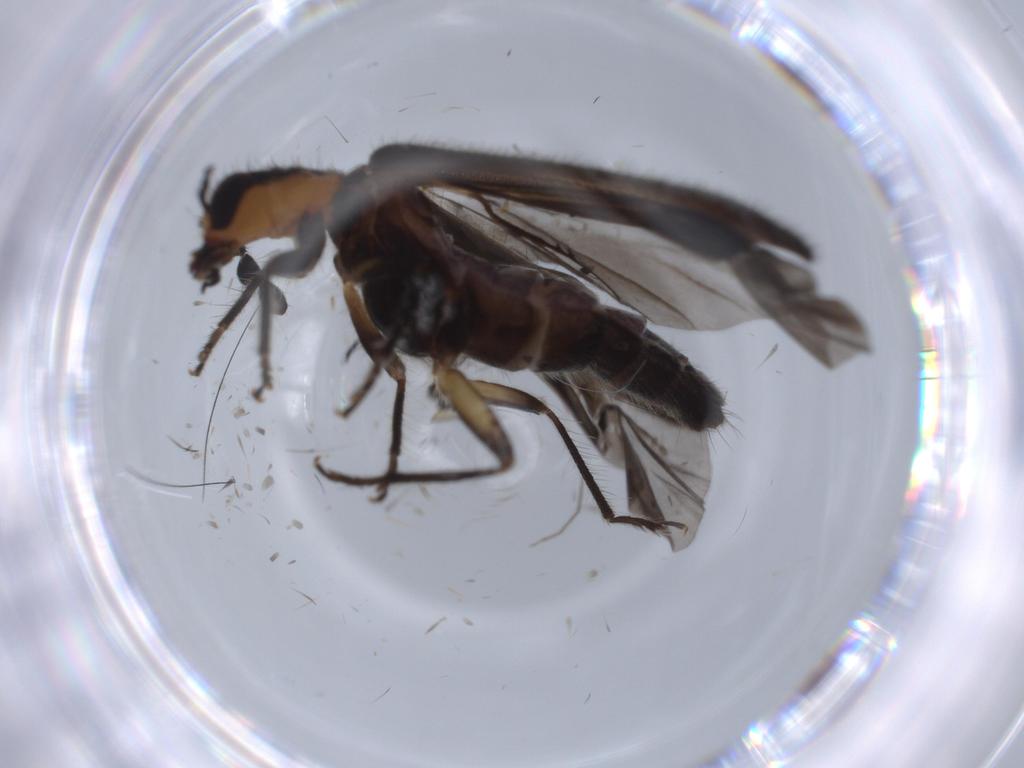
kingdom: Animalia
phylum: Arthropoda
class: Insecta
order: Coleoptera
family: Cleridae
